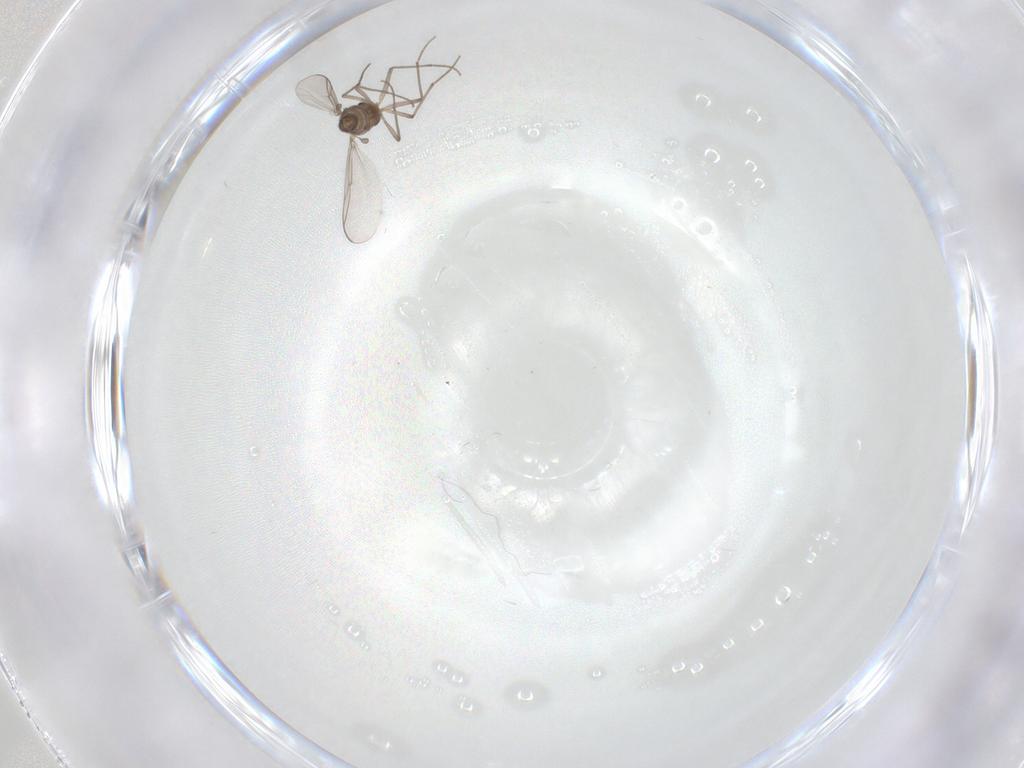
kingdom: Animalia
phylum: Arthropoda
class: Insecta
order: Diptera
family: Chironomidae
